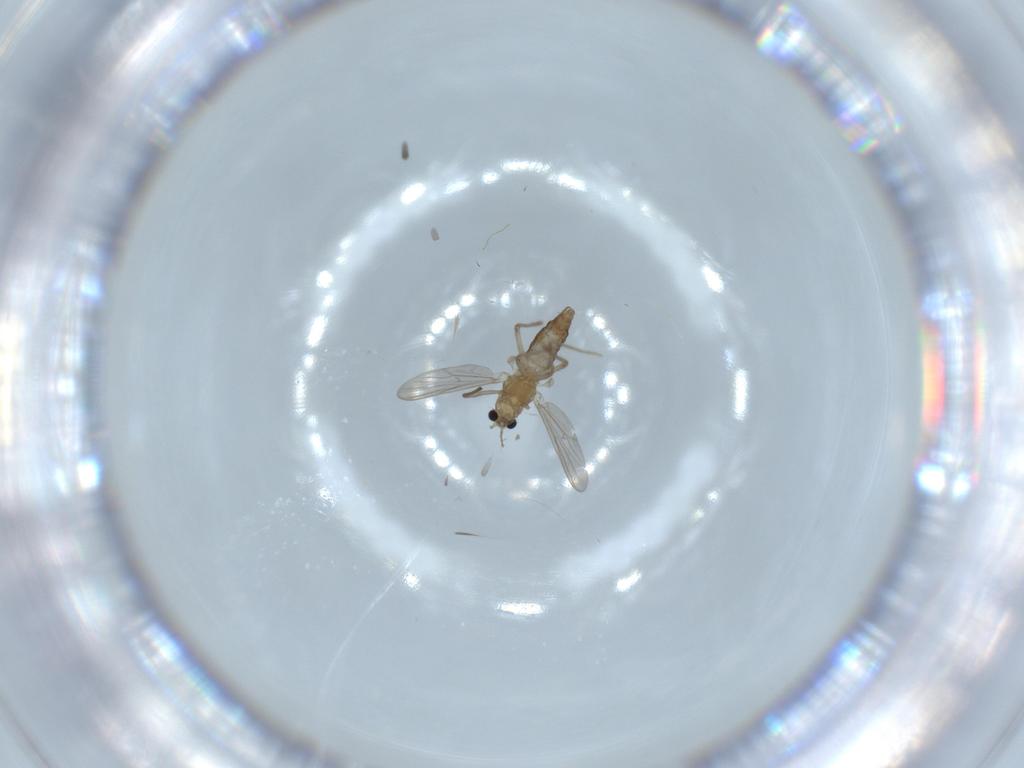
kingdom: Animalia
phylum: Arthropoda
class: Insecta
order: Diptera
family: Chironomidae
